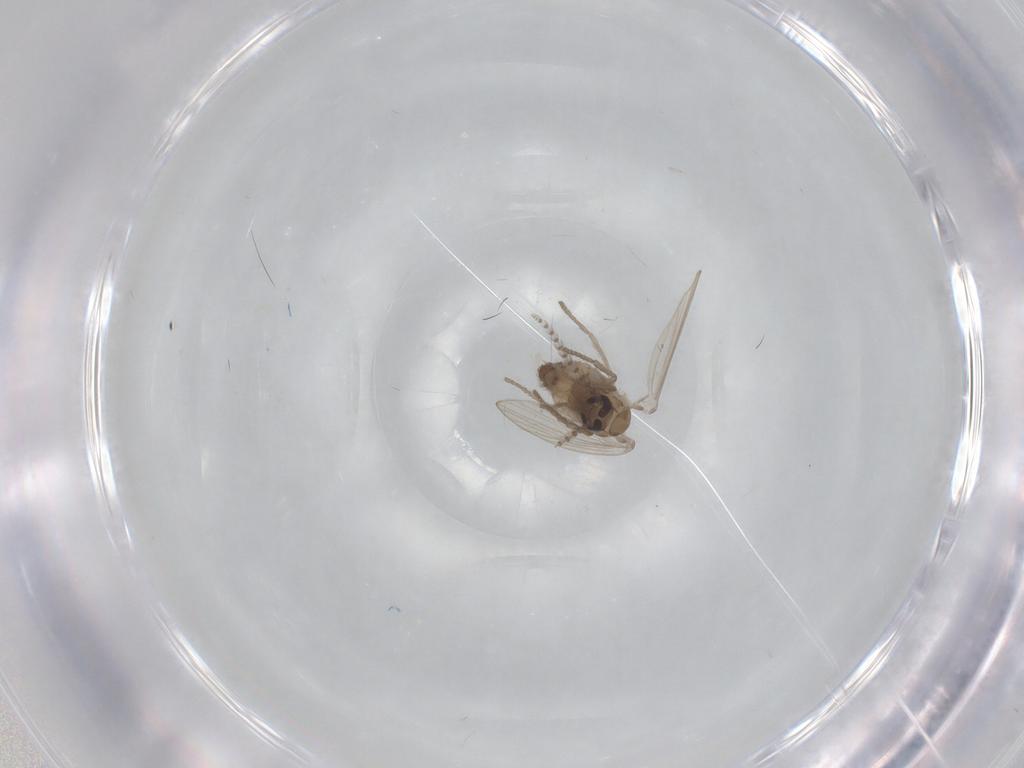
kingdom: Animalia
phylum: Arthropoda
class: Insecta
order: Diptera
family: Psychodidae
